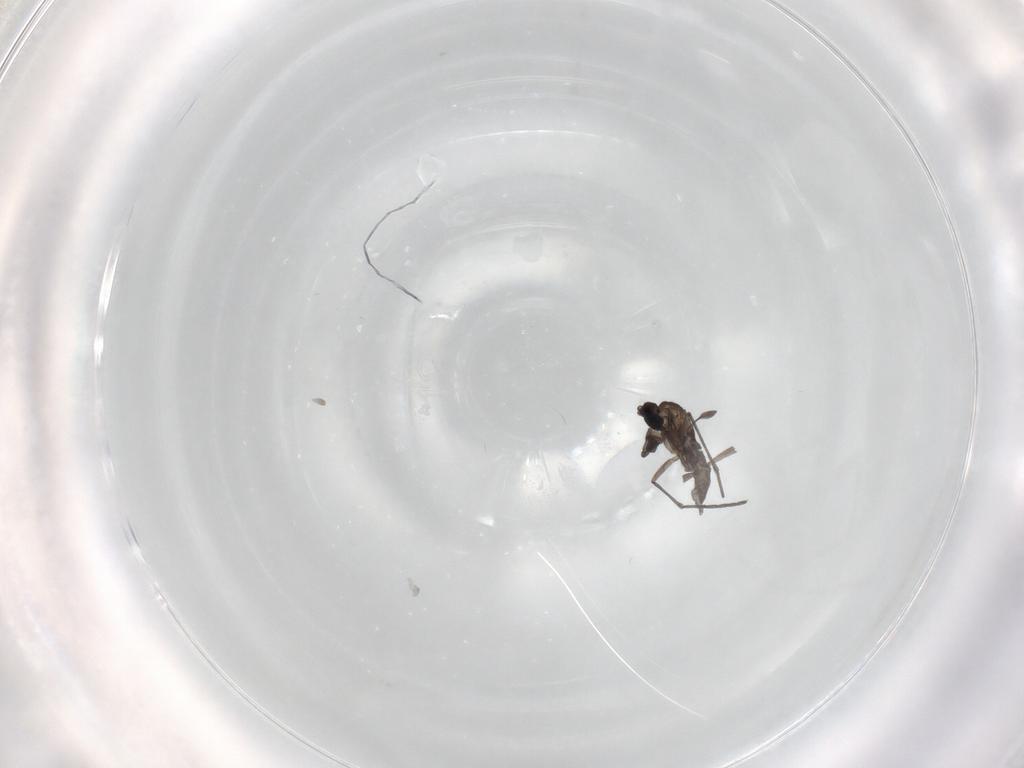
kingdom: Animalia
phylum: Arthropoda
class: Insecta
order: Diptera
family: Sciaridae
